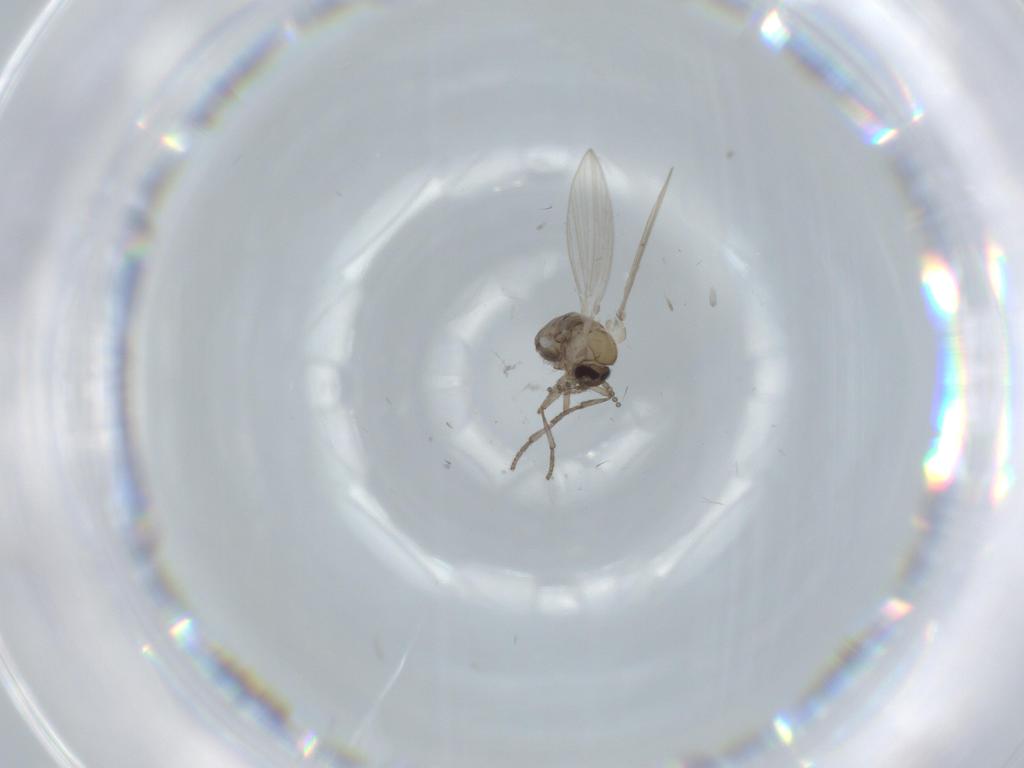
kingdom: Animalia
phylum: Arthropoda
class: Insecta
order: Diptera
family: Psychodidae
